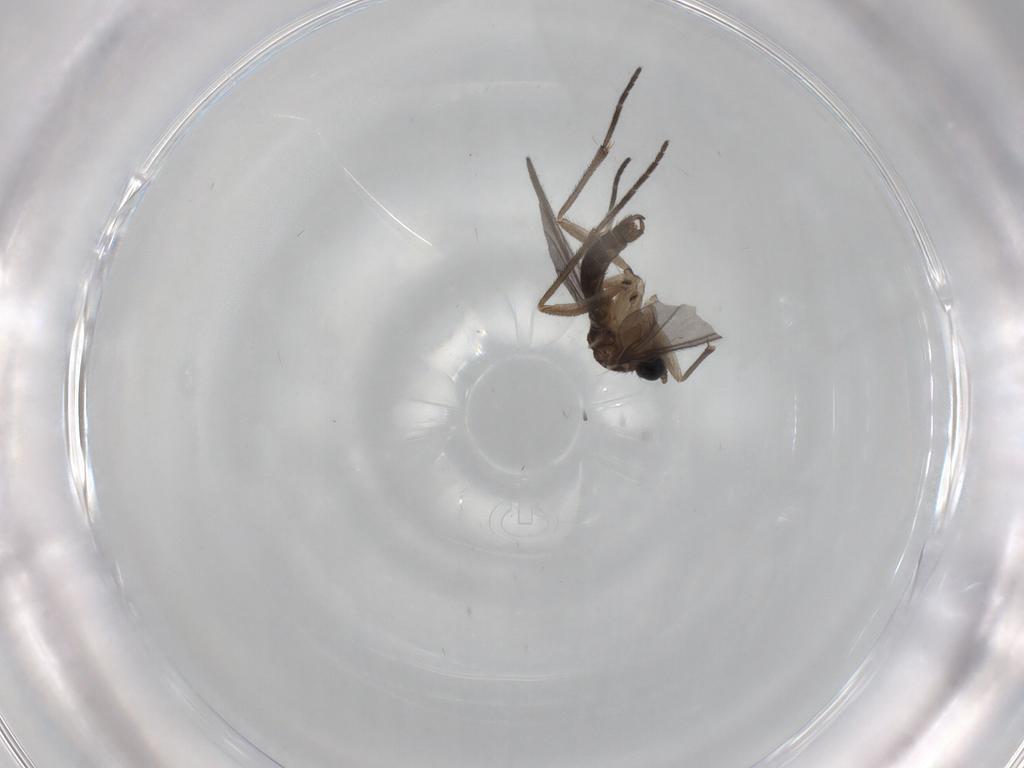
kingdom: Animalia
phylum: Arthropoda
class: Insecta
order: Diptera
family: Sciaridae
